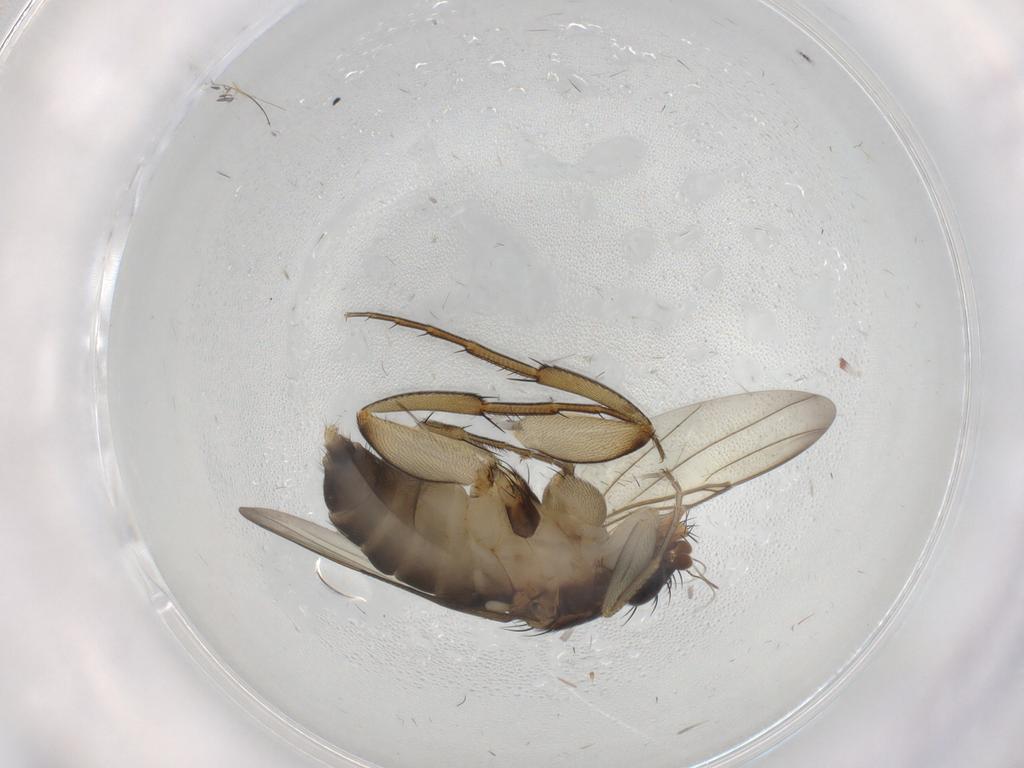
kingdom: Animalia
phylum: Arthropoda
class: Insecta
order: Diptera
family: Phoridae
